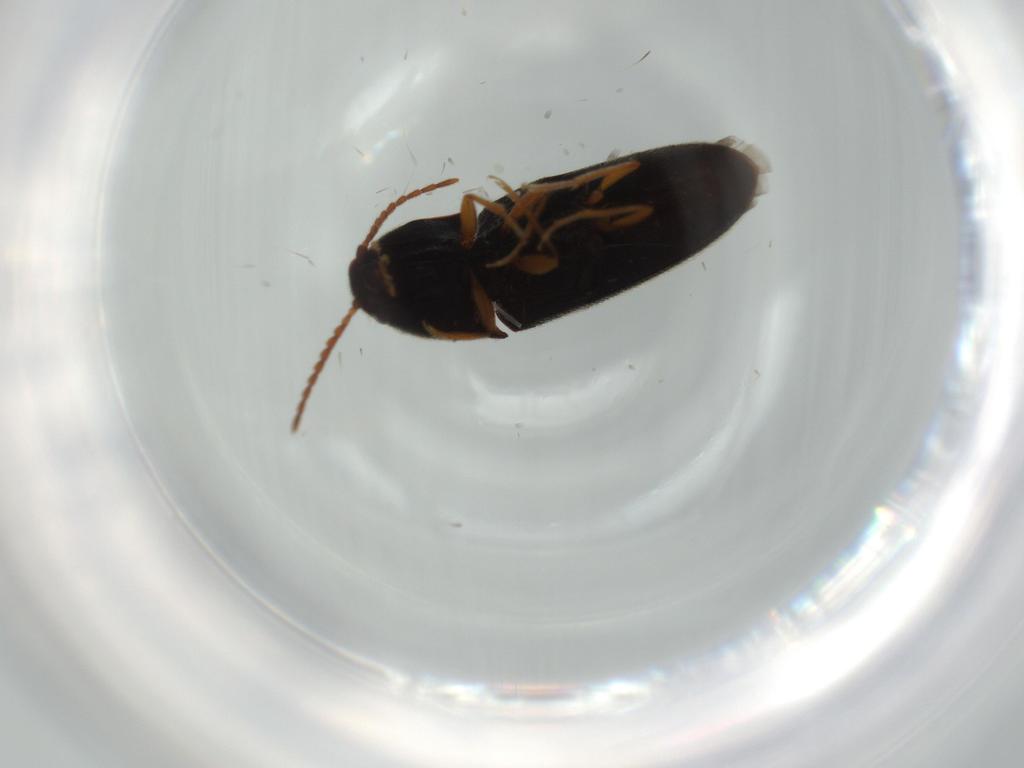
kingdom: Animalia
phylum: Arthropoda
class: Insecta
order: Coleoptera
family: Elateridae
